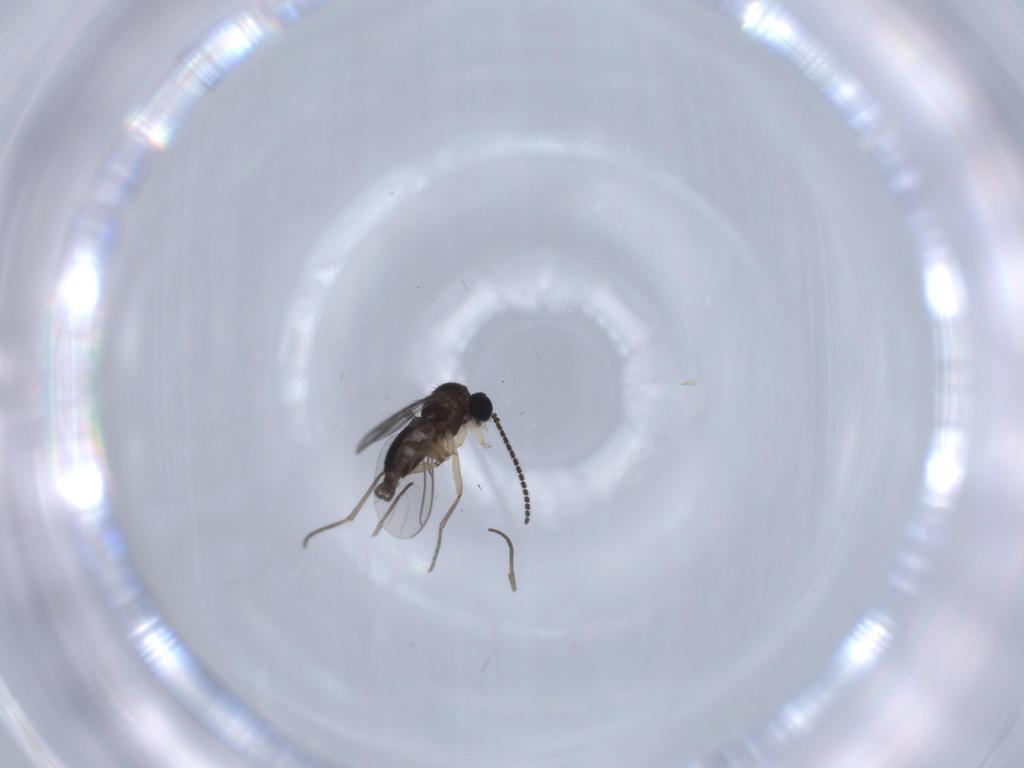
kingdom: Animalia
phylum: Arthropoda
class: Insecta
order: Diptera
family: Sciaridae
